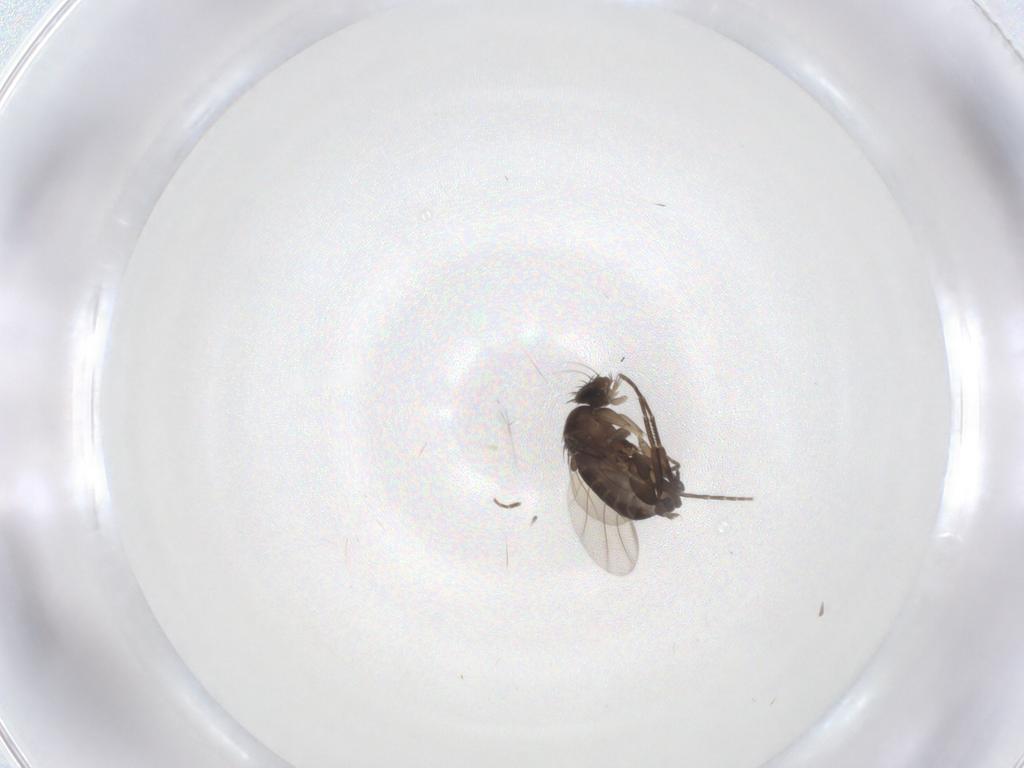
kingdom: Animalia
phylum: Arthropoda
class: Insecta
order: Diptera
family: Phoridae
